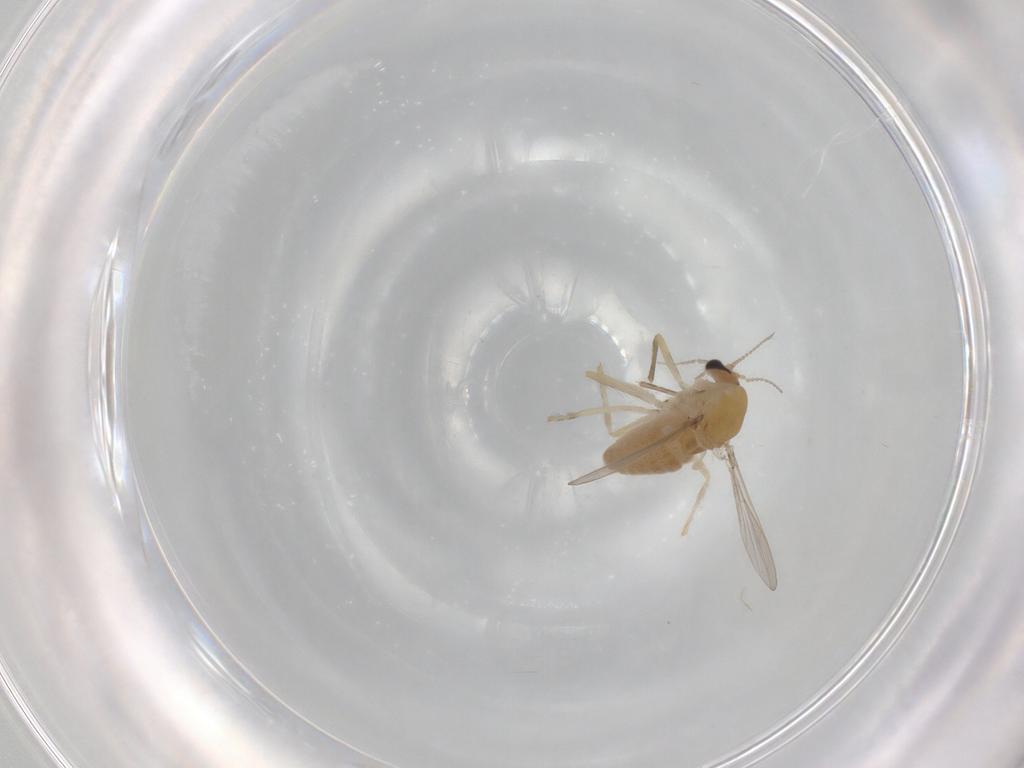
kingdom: Animalia
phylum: Arthropoda
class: Insecta
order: Diptera
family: Chironomidae
